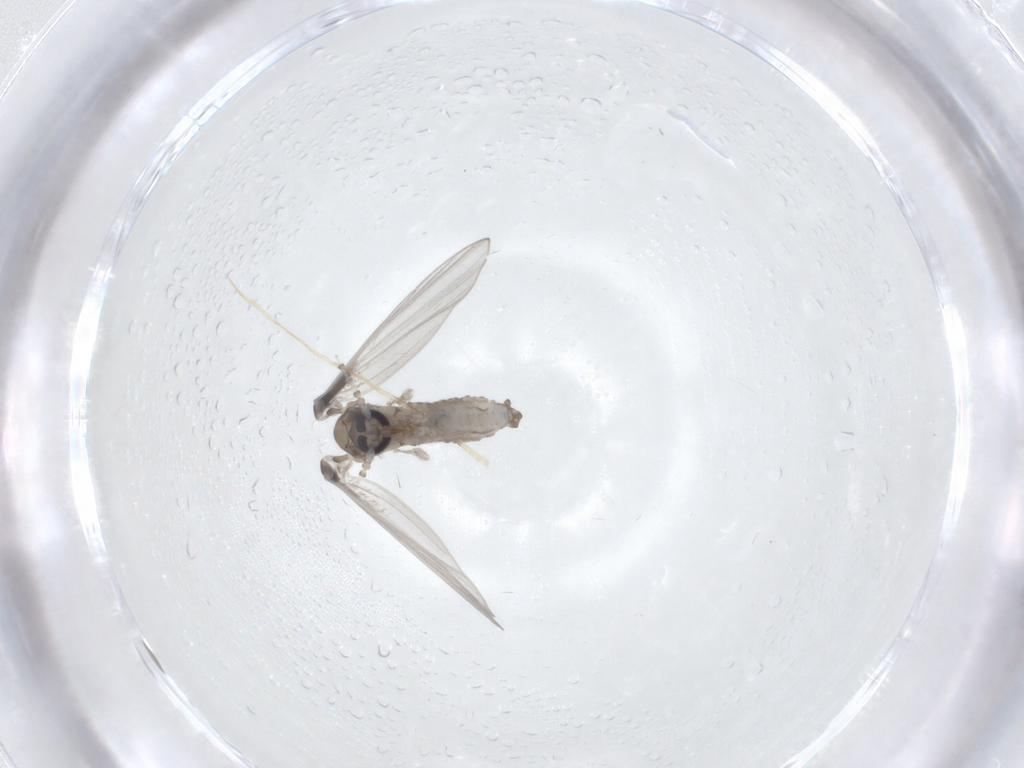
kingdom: Animalia
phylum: Arthropoda
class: Insecta
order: Diptera
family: Psychodidae
